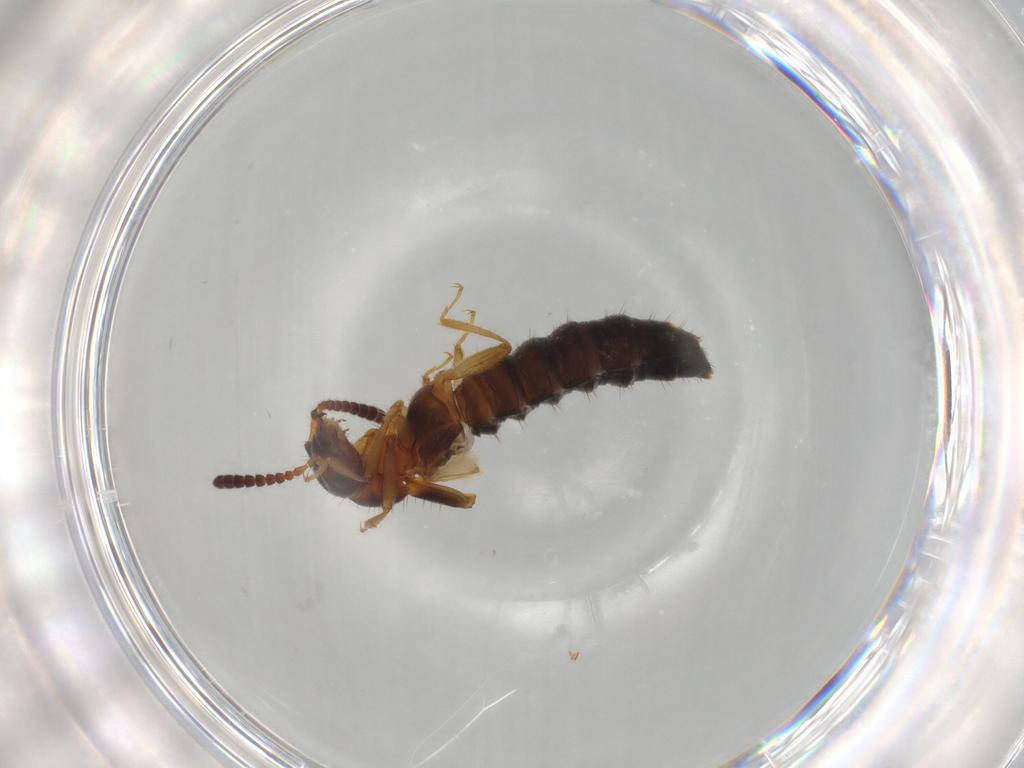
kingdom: Animalia
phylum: Arthropoda
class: Insecta
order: Coleoptera
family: Staphylinidae
